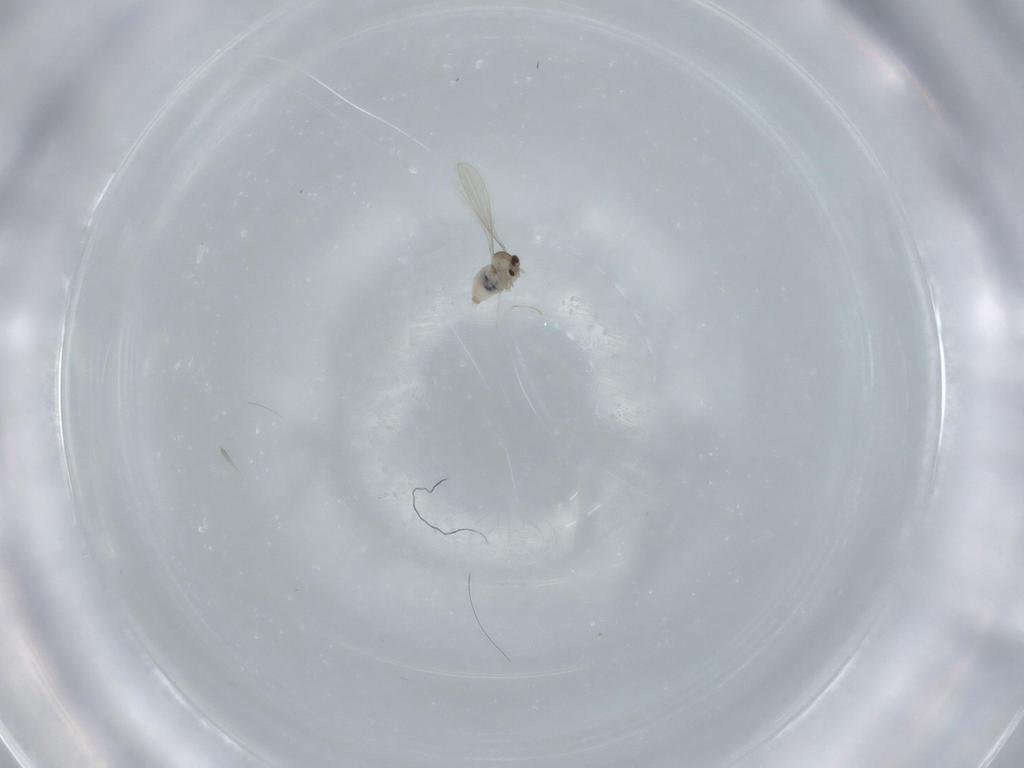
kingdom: Animalia
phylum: Arthropoda
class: Insecta
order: Diptera
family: Cecidomyiidae
